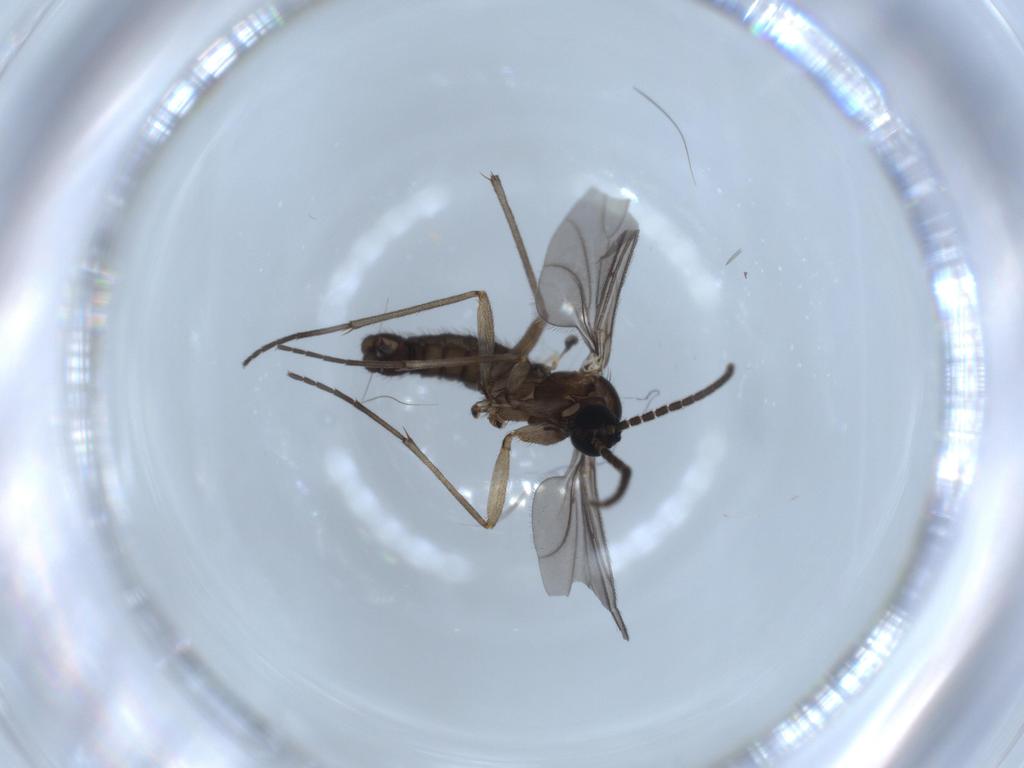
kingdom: Animalia
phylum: Arthropoda
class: Insecta
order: Diptera
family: Sciaridae
